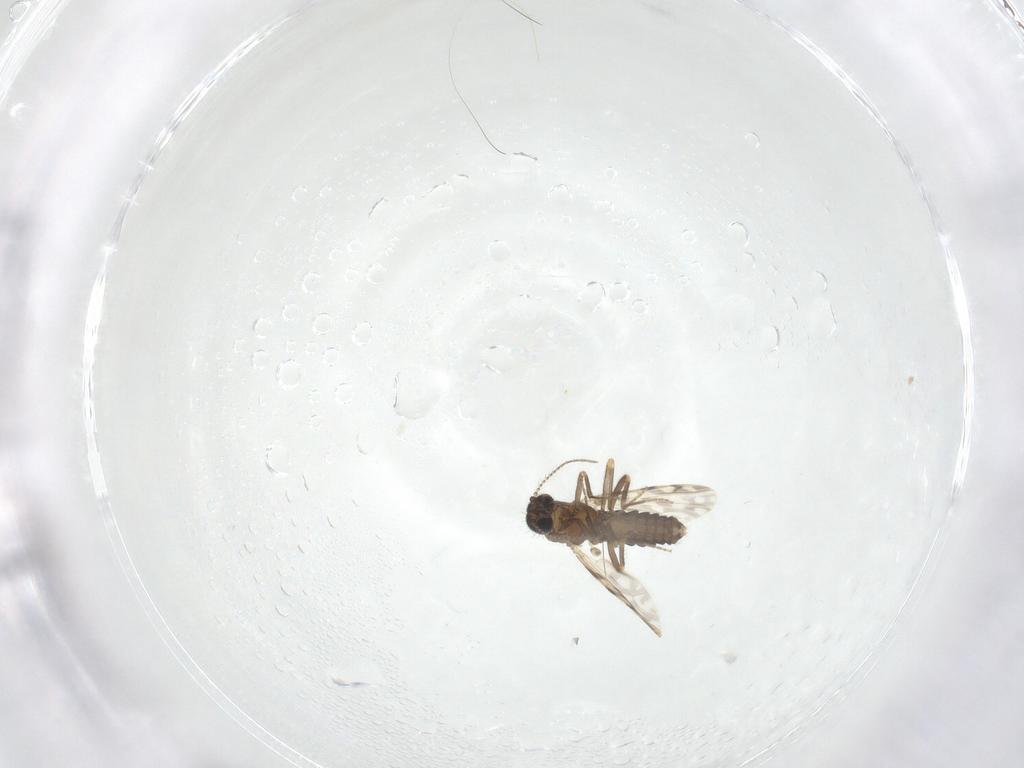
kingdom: Animalia
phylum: Arthropoda
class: Insecta
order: Diptera
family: Ceratopogonidae
